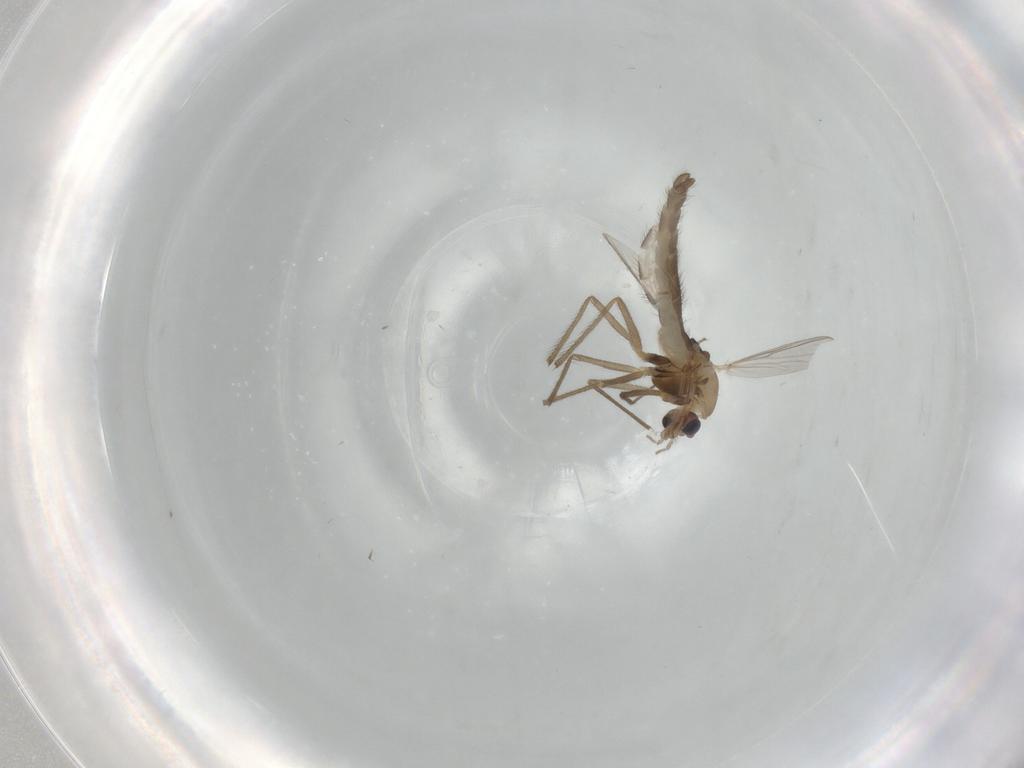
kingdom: Animalia
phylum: Arthropoda
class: Insecta
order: Diptera
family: Chironomidae
